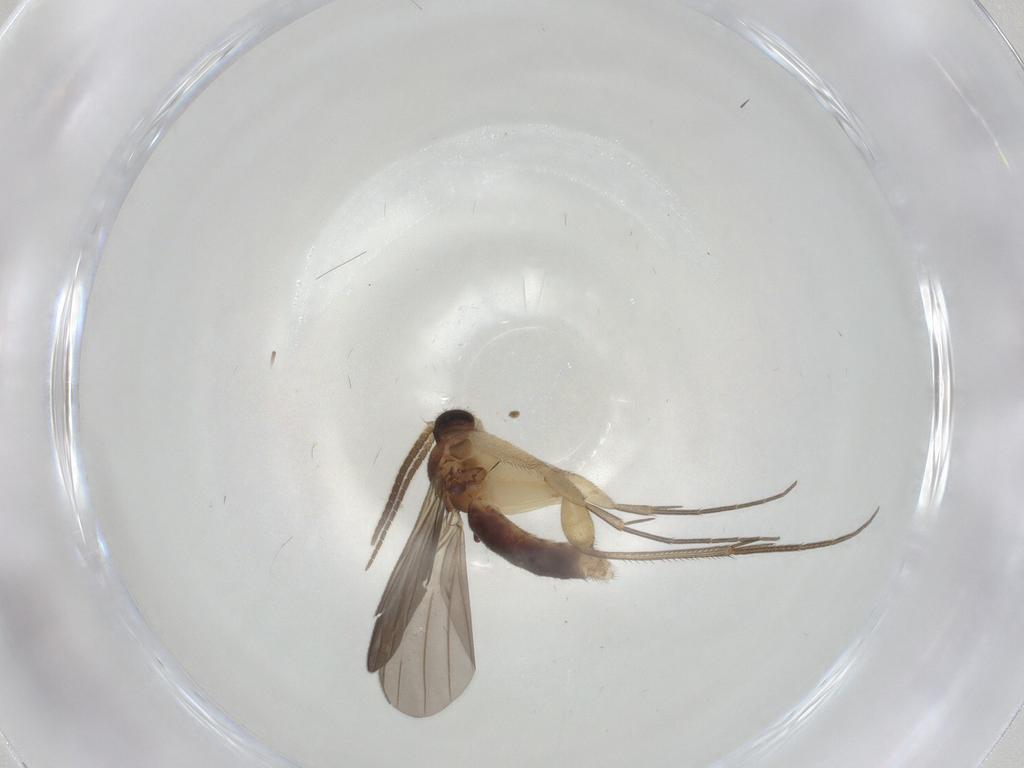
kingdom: Animalia
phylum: Arthropoda
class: Insecta
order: Diptera
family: Mycetophilidae
